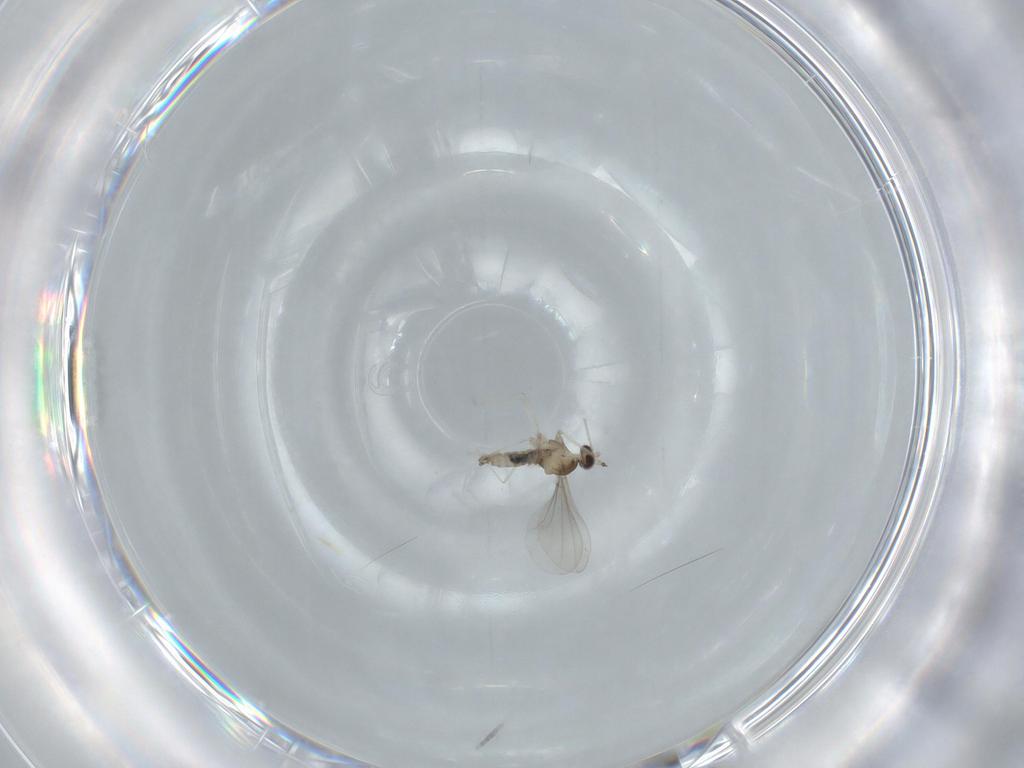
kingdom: Animalia
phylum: Arthropoda
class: Insecta
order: Diptera
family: Cecidomyiidae
